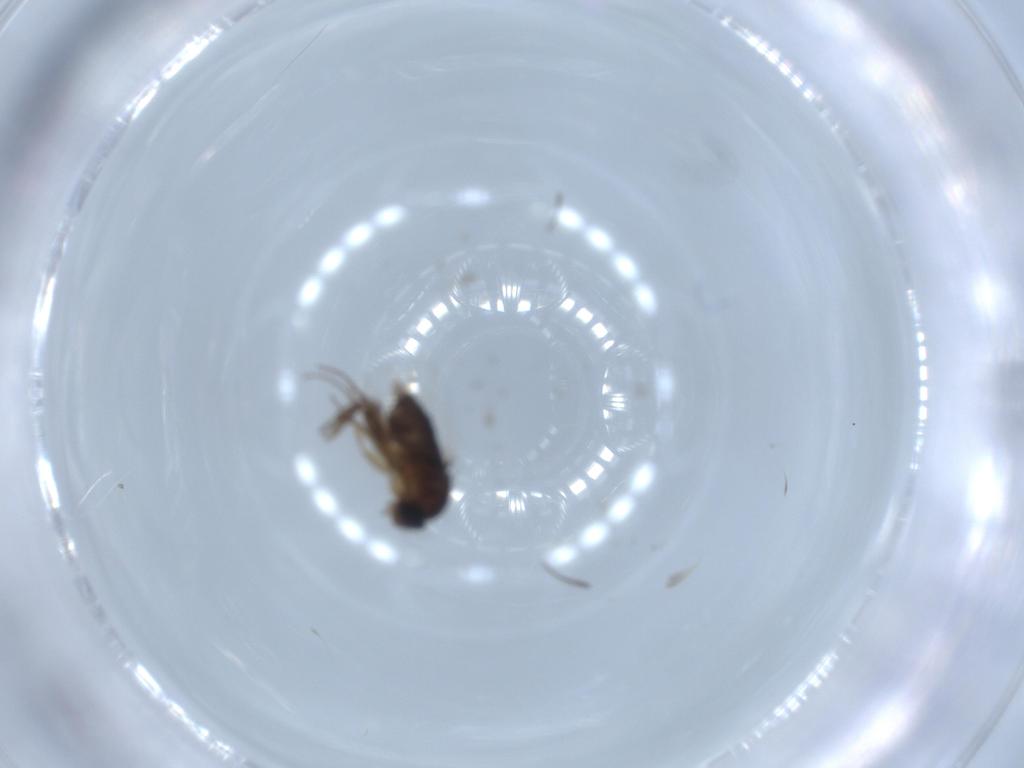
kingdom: Animalia
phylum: Arthropoda
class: Insecta
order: Diptera
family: Phoridae
